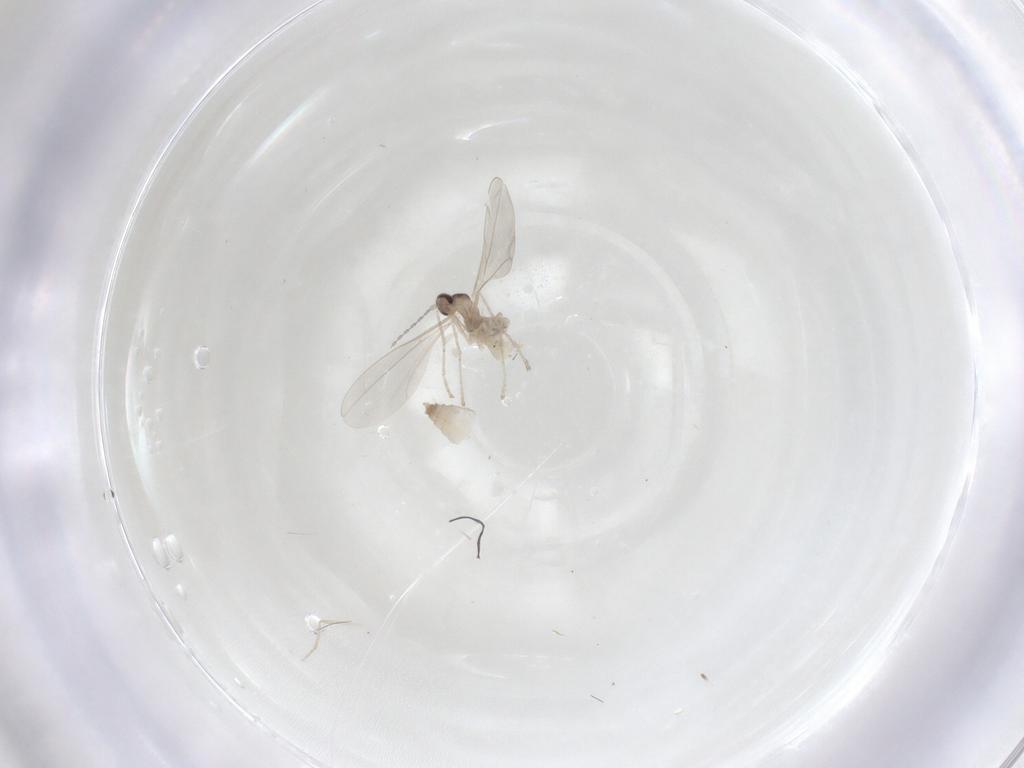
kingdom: Animalia
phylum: Arthropoda
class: Insecta
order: Diptera
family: Cecidomyiidae
